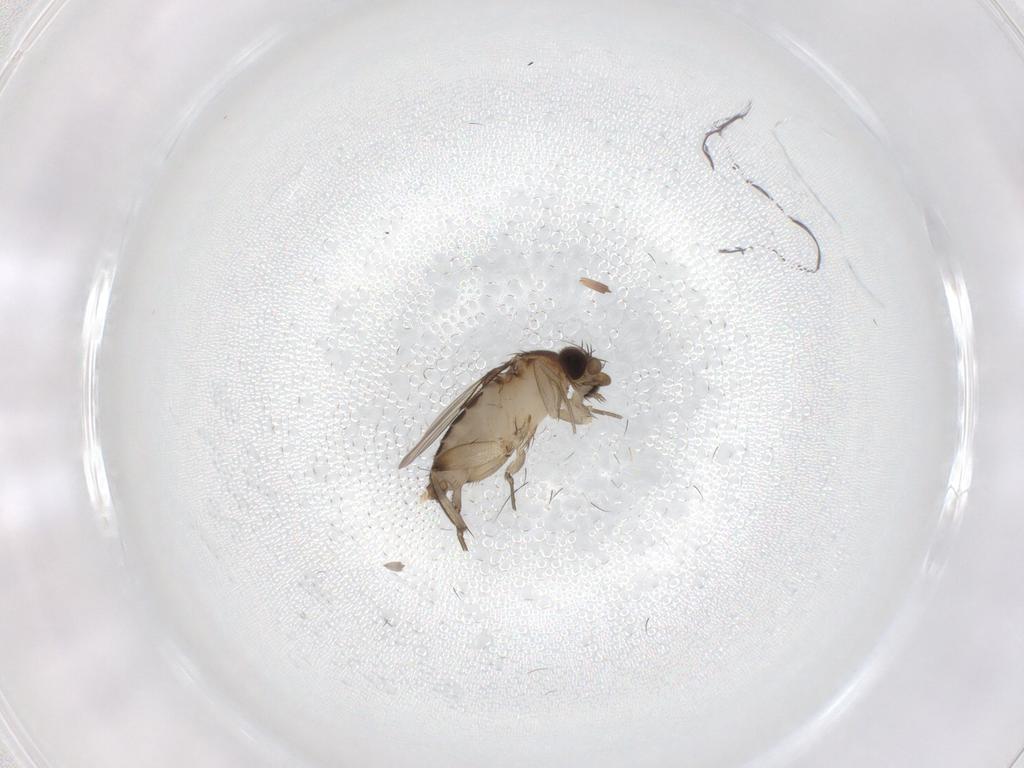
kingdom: Animalia
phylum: Arthropoda
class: Insecta
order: Diptera
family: Phoridae
